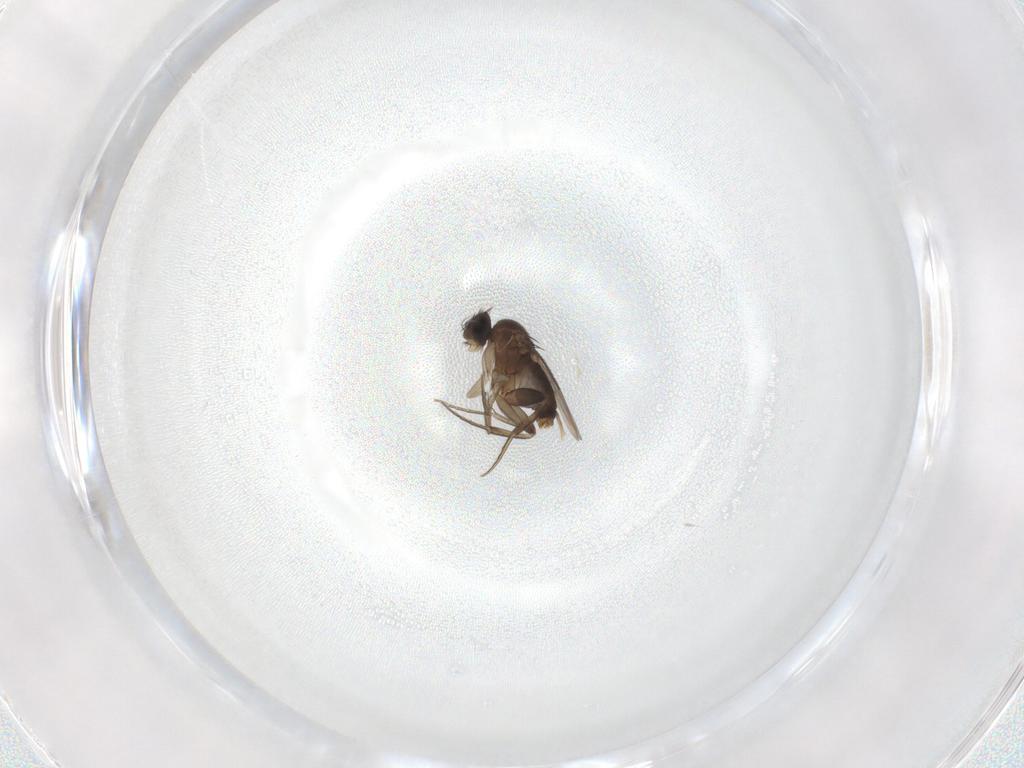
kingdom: Animalia
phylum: Arthropoda
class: Insecta
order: Diptera
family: Phoridae
